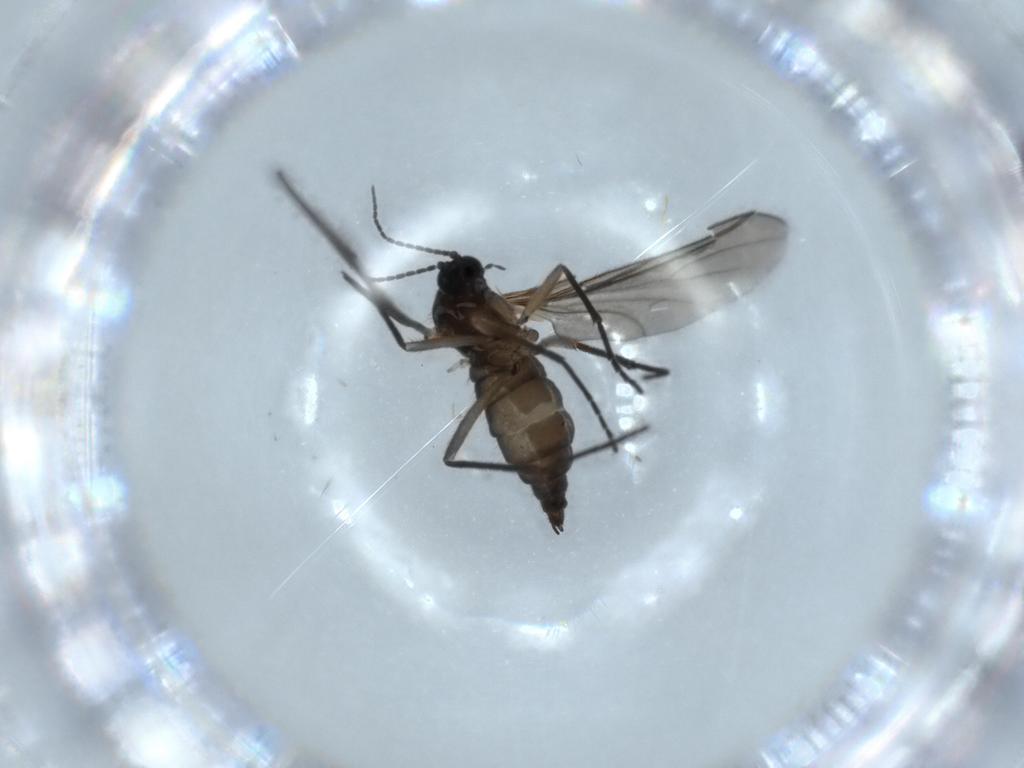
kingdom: Animalia
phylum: Arthropoda
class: Insecta
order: Diptera
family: Sciaridae
